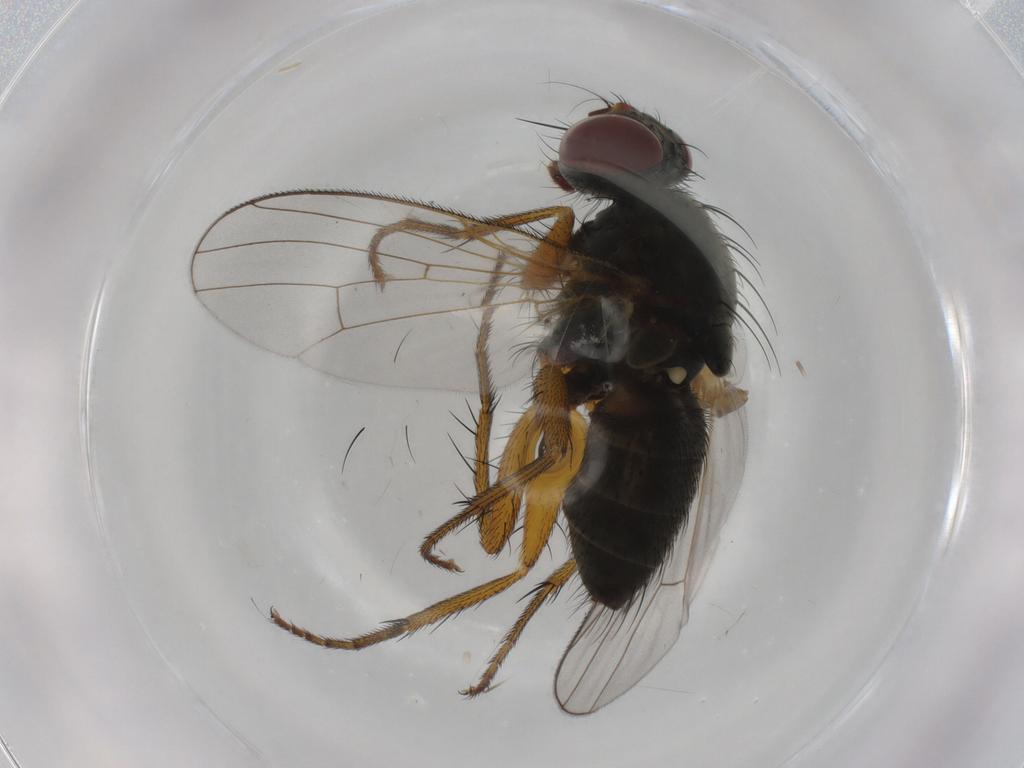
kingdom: Animalia
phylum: Arthropoda
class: Insecta
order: Diptera
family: Chironomidae
